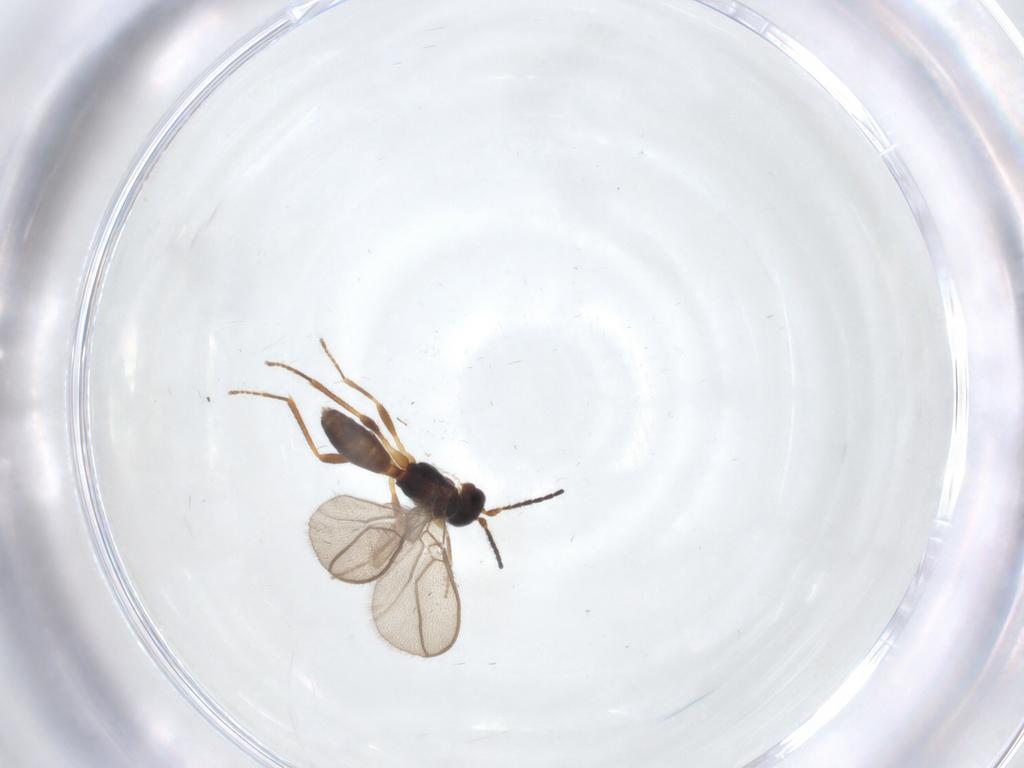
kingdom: Animalia
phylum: Arthropoda
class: Insecta
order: Hymenoptera
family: Braconidae
